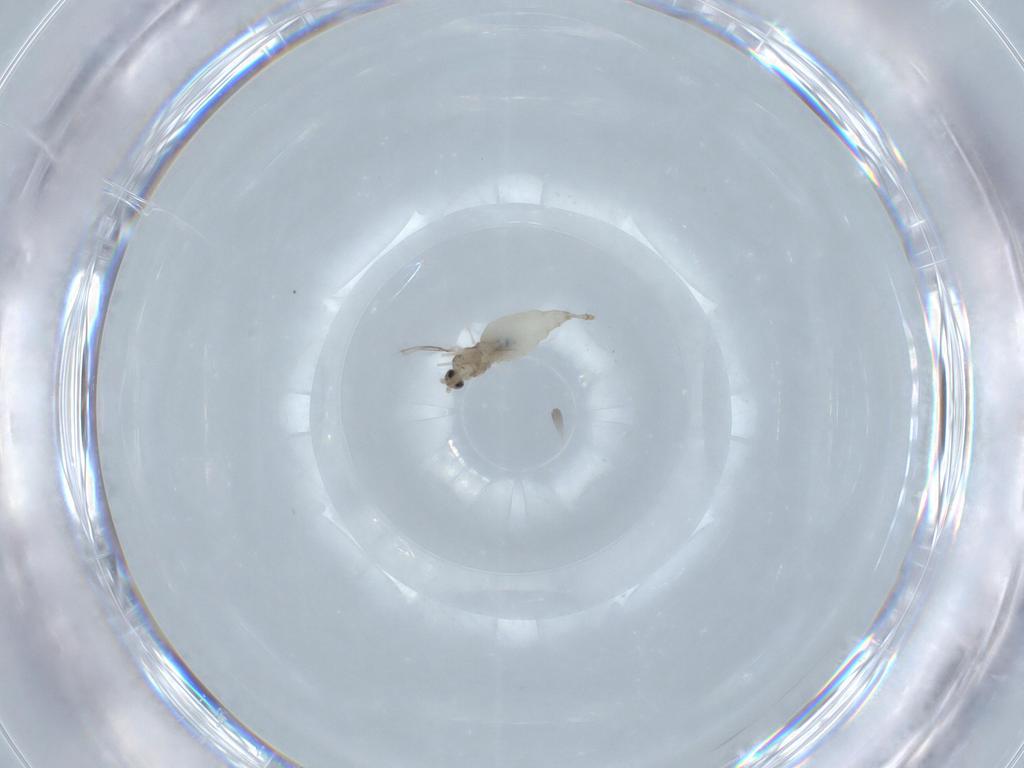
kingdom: Animalia
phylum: Arthropoda
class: Insecta
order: Diptera
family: Cecidomyiidae
